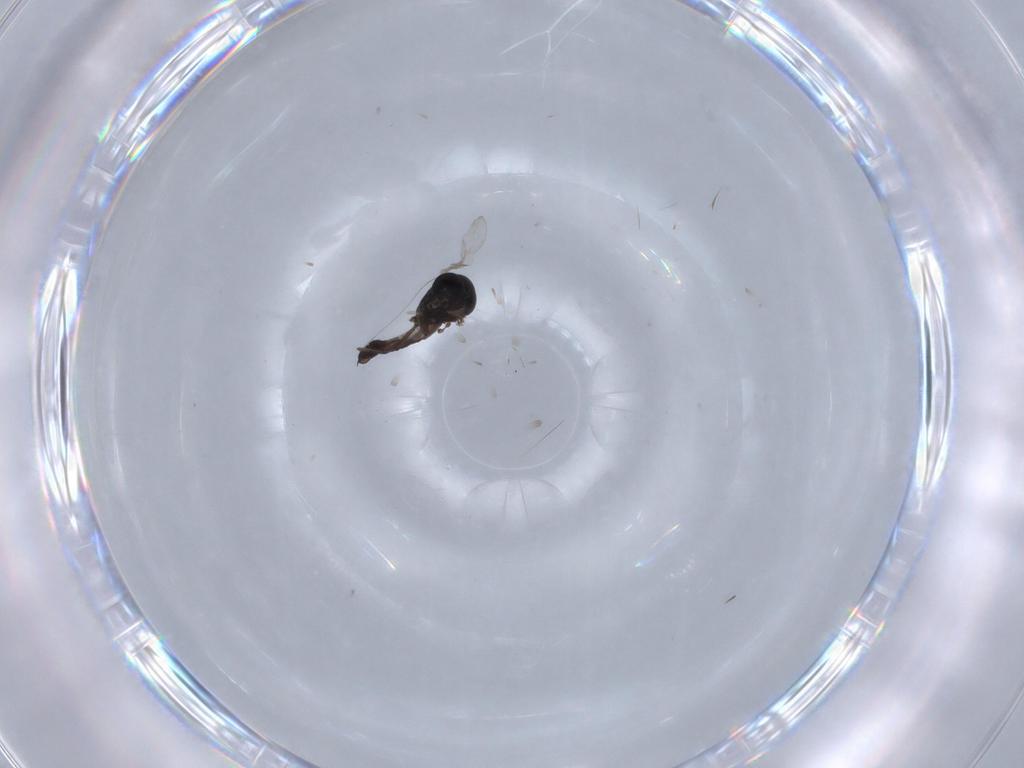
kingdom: Animalia
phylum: Arthropoda
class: Insecta
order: Diptera
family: Ceratopogonidae
